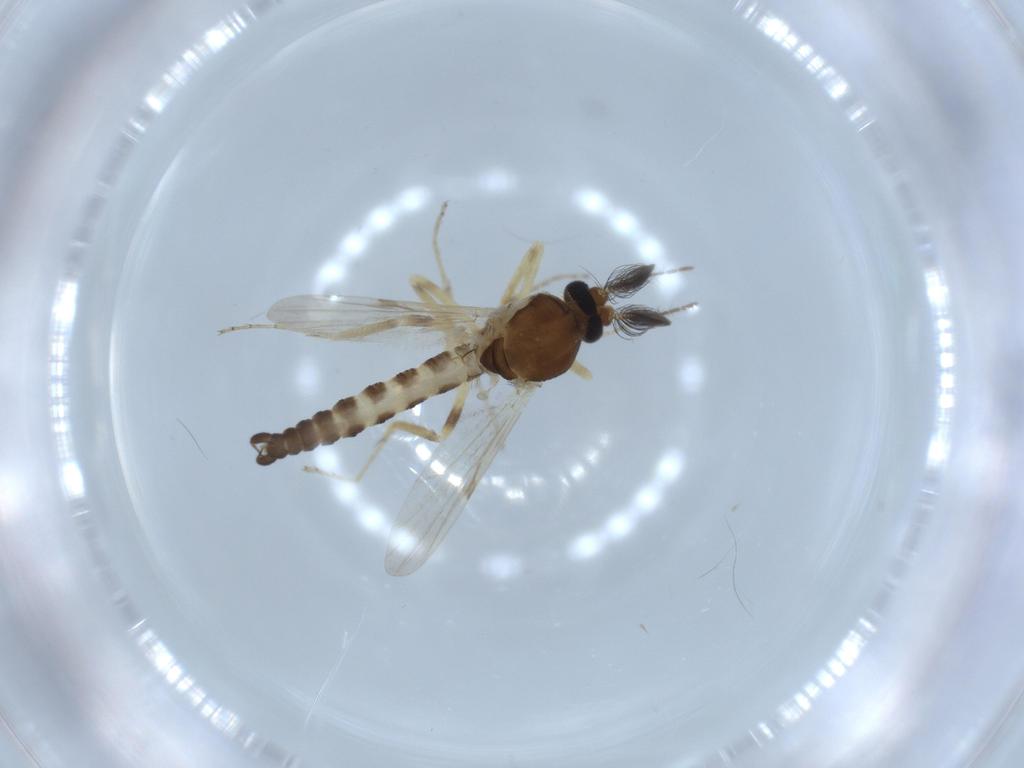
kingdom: Animalia
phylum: Arthropoda
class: Insecta
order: Diptera
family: Ceratopogonidae
